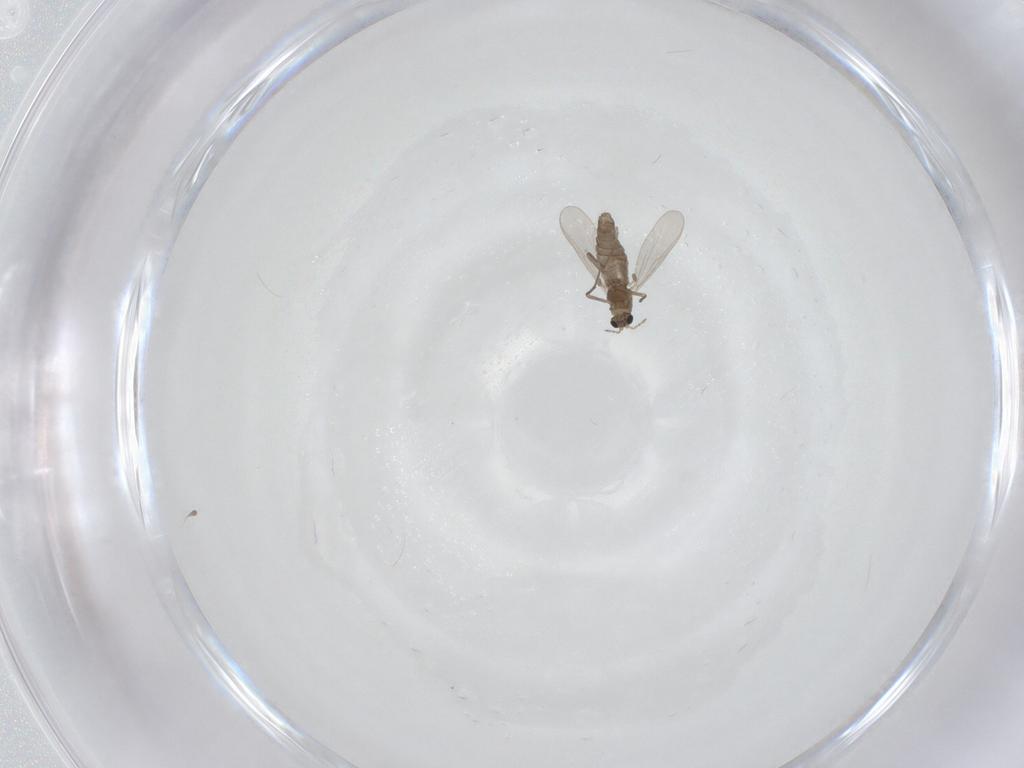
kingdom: Animalia
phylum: Arthropoda
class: Insecta
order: Diptera
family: Chironomidae
